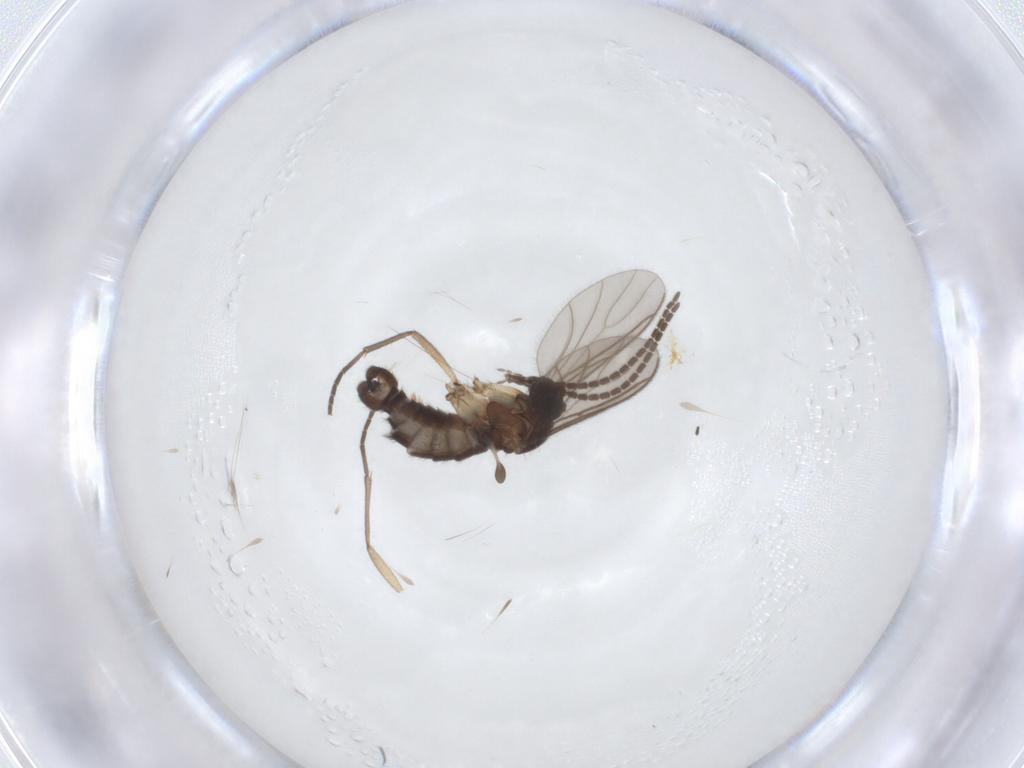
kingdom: Animalia
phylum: Arthropoda
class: Insecta
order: Diptera
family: Sciaridae
